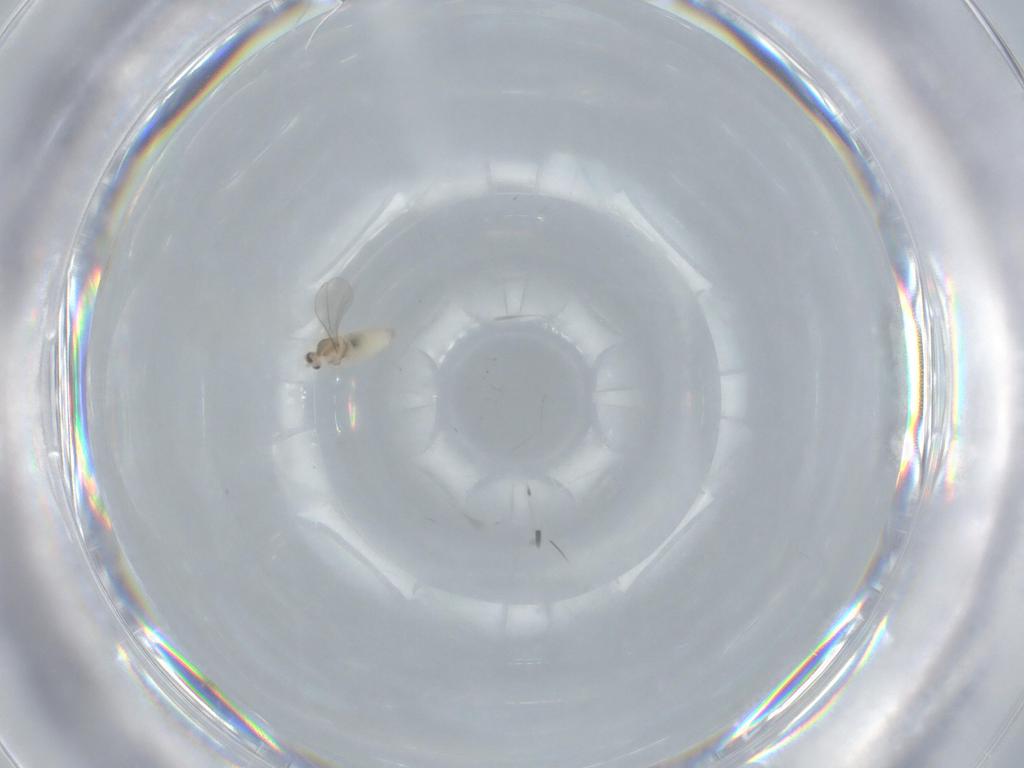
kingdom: Animalia
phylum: Arthropoda
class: Insecta
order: Diptera
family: Cecidomyiidae
